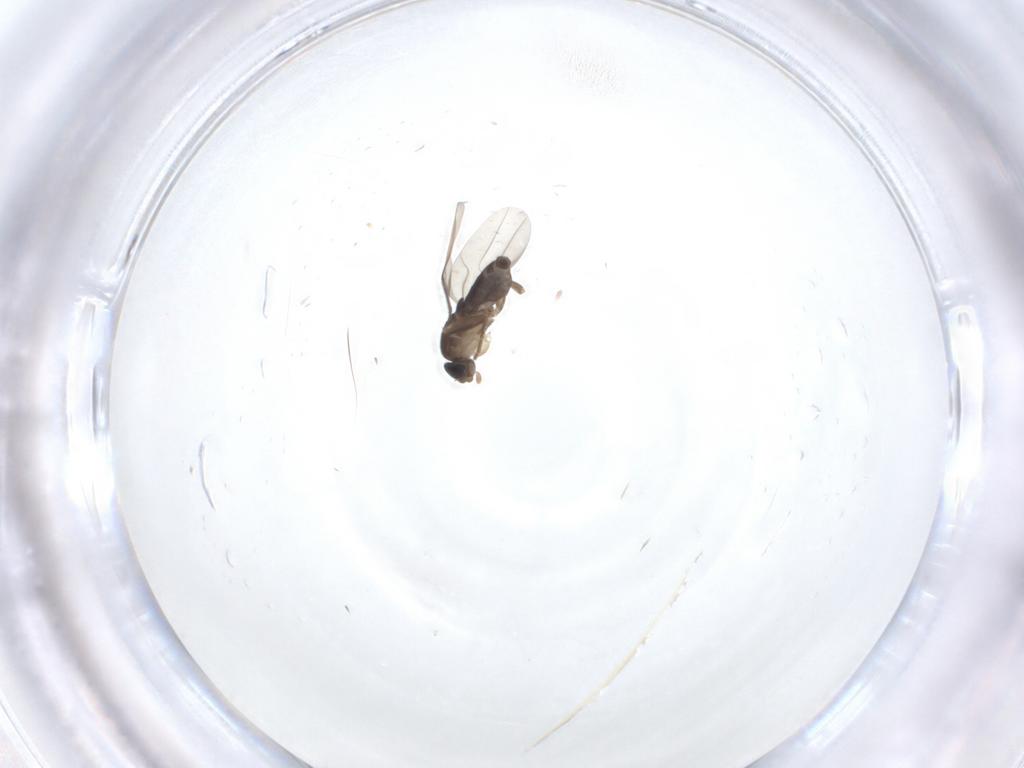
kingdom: Animalia
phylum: Arthropoda
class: Insecta
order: Diptera
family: Phoridae
